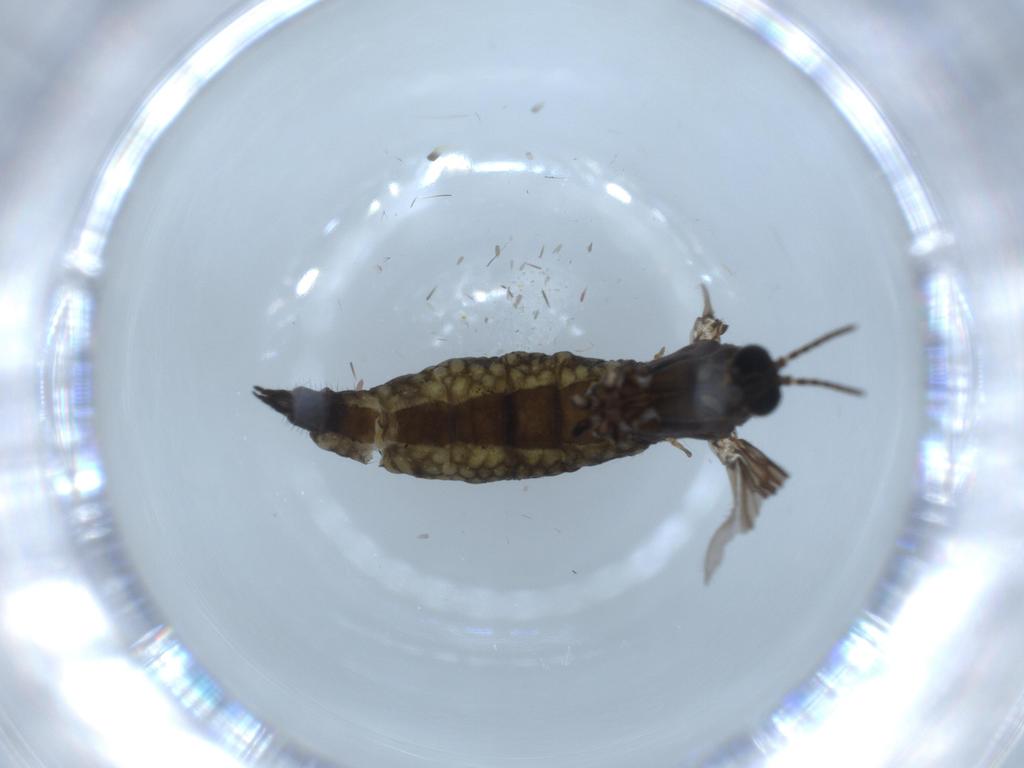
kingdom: Animalia
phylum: Arthropoda
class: Insecta
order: Diptera
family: Sciaridae
